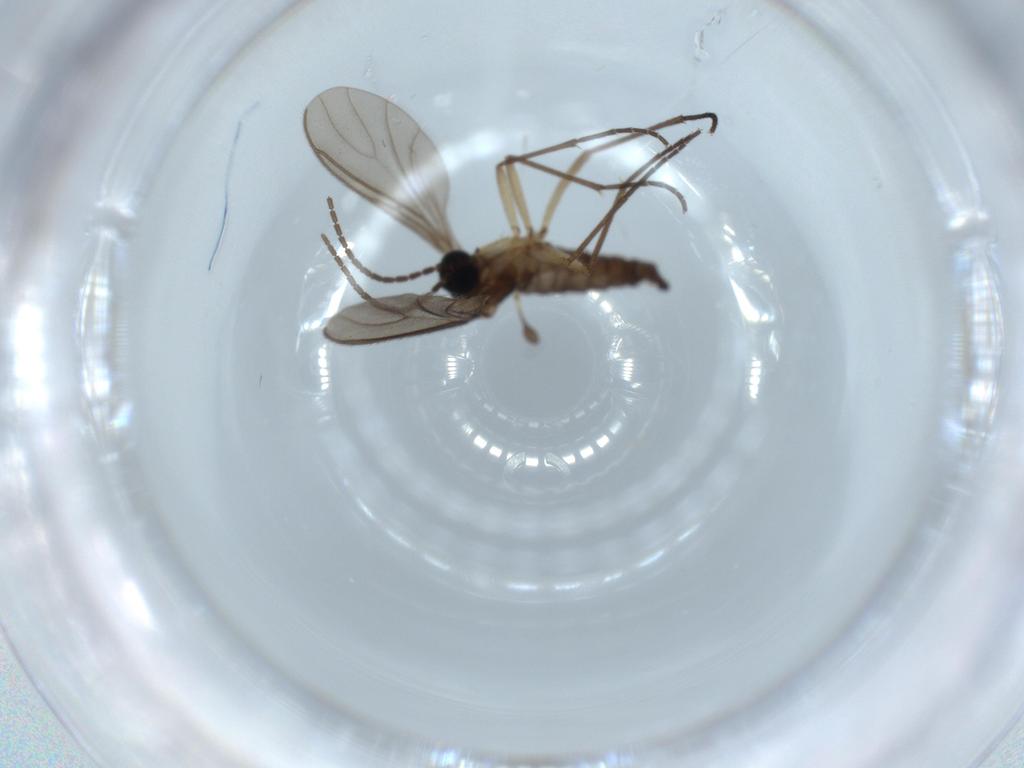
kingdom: Animalia
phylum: Arthropoda
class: Insecta
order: Diptera
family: Sciaridae
